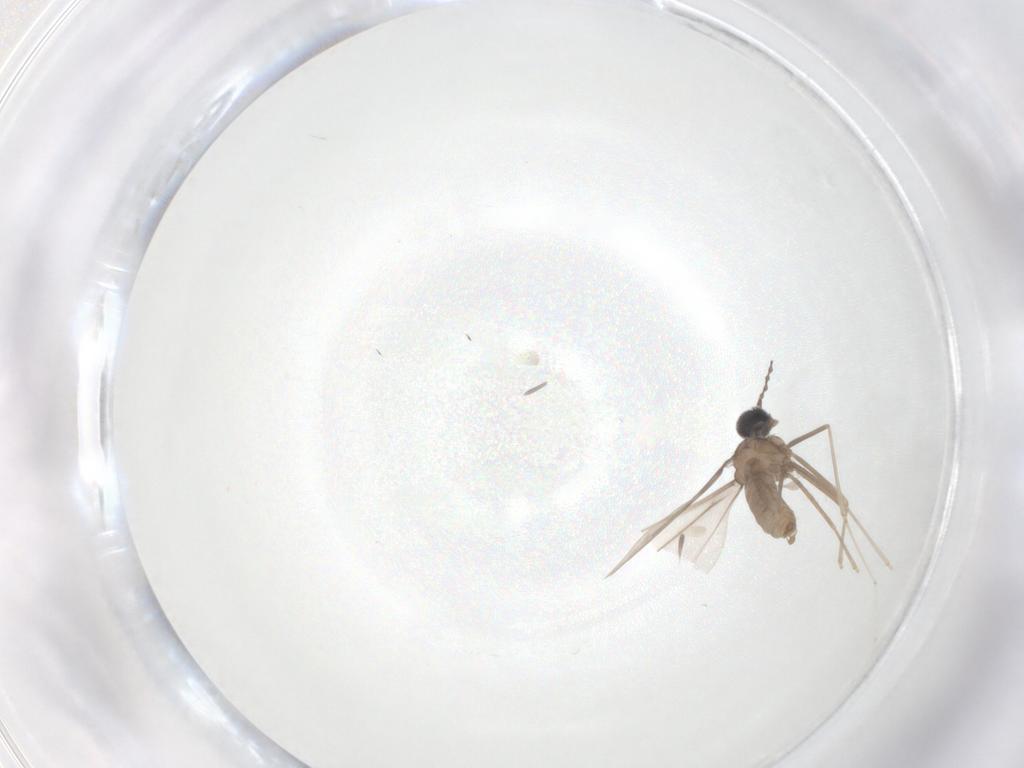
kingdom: Animalia
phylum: Arthropoda
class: Insecta
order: Diptera
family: Cecidomyiidae
